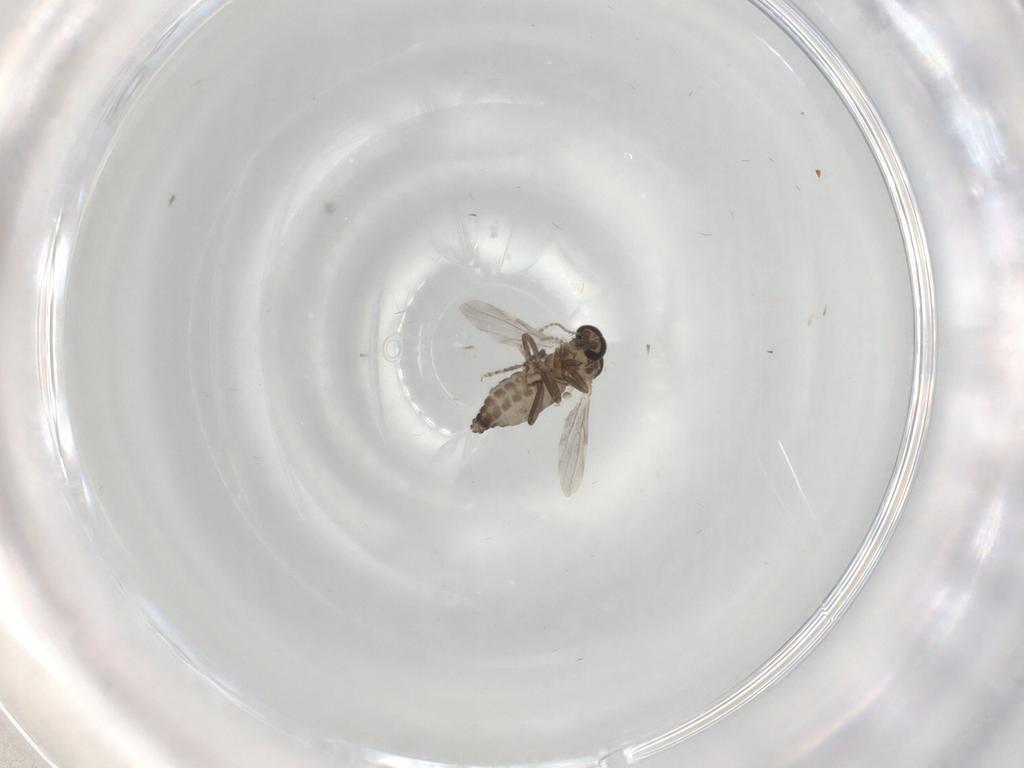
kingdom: Animalia
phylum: Arthropoda
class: Insecta
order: Diptera
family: Ceratopogonidae
